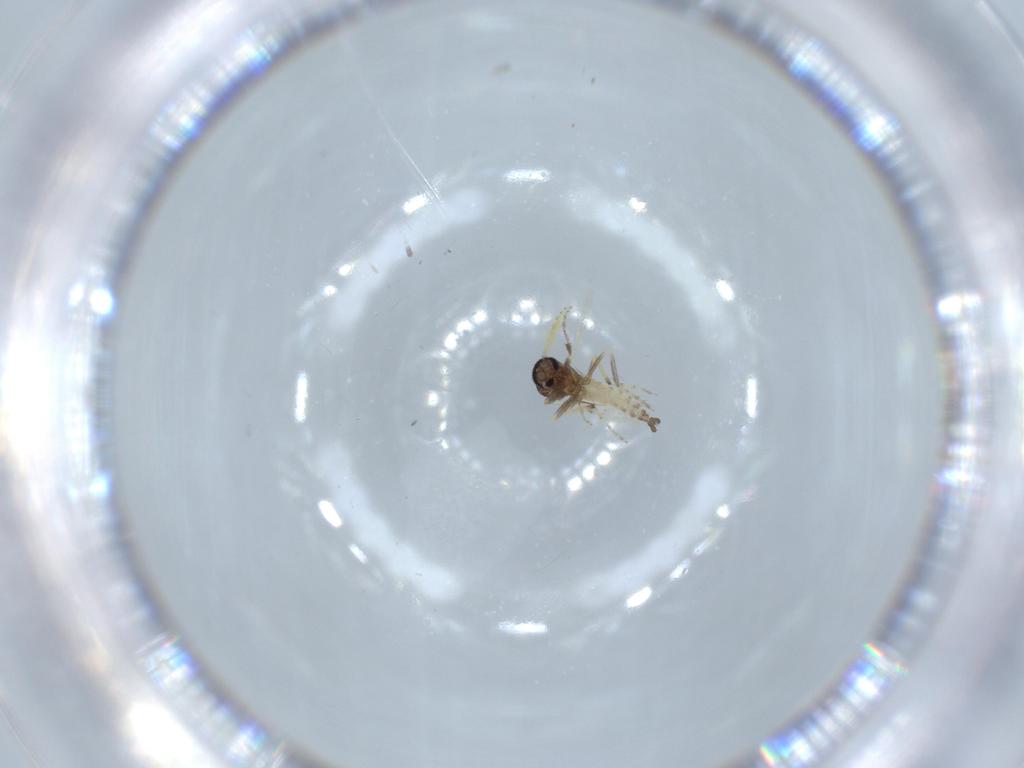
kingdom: Animalia
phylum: Arthropoda
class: Insecta
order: Diptera
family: Ceratopogonidae
